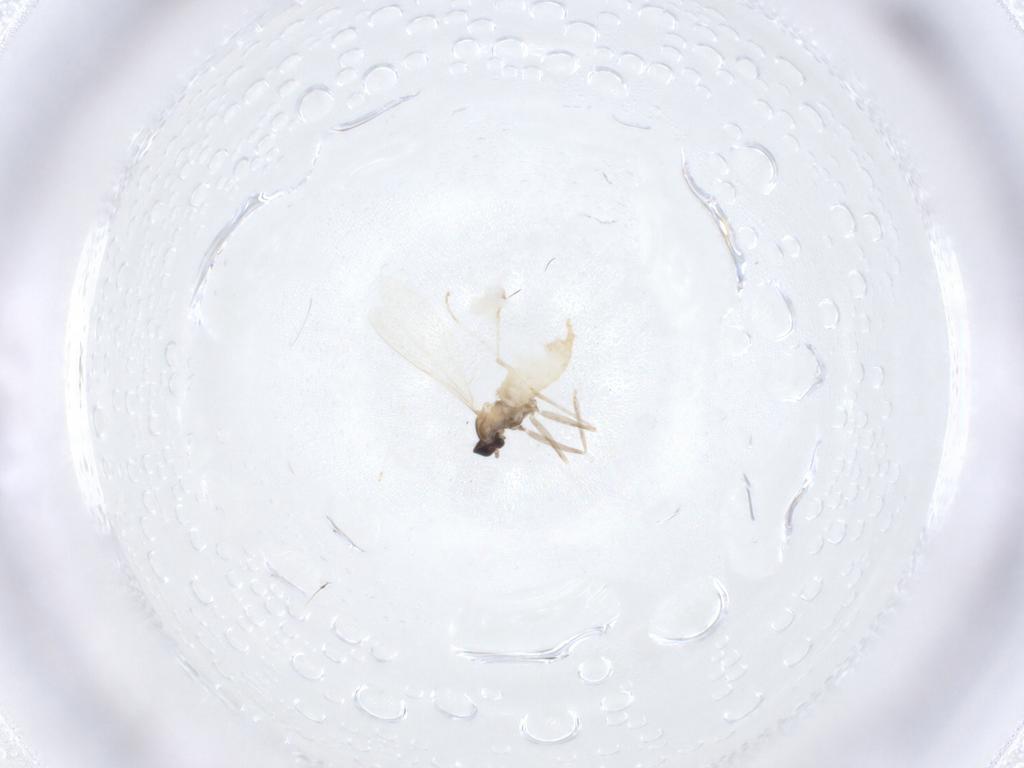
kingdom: Animalia
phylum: Arthropoda
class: Insecta
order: Diptera
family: Cecidomyiidae
